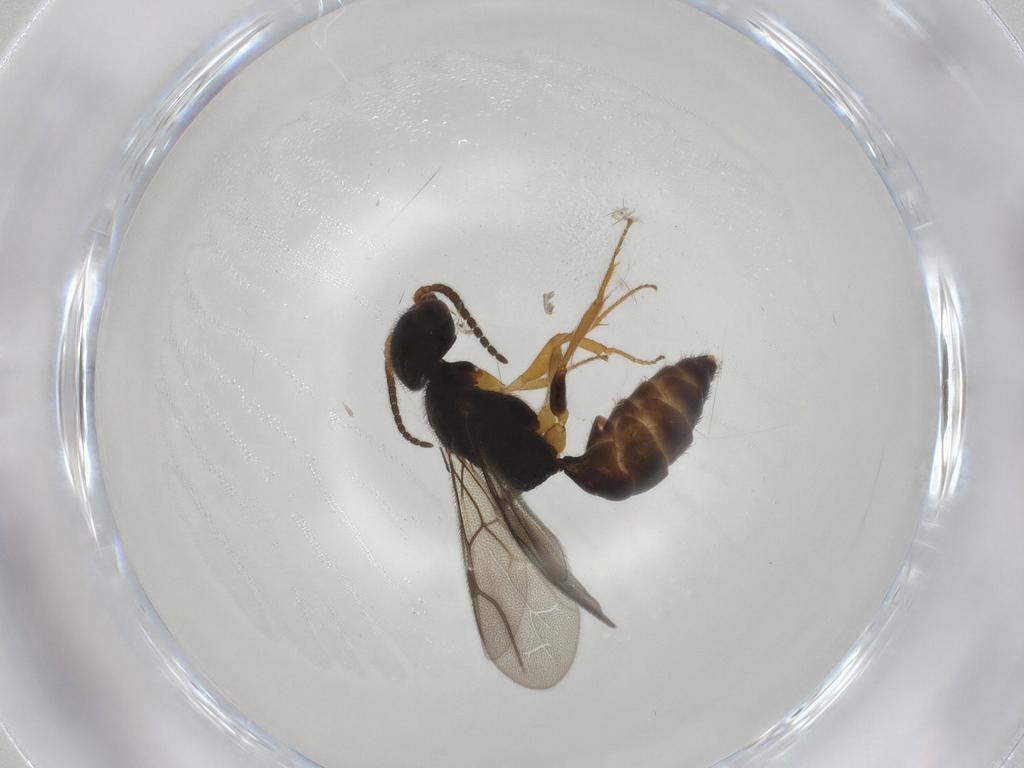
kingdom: Animalia
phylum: Arthropoda
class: Insecta
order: Hymenoptera
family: Bethylidae
